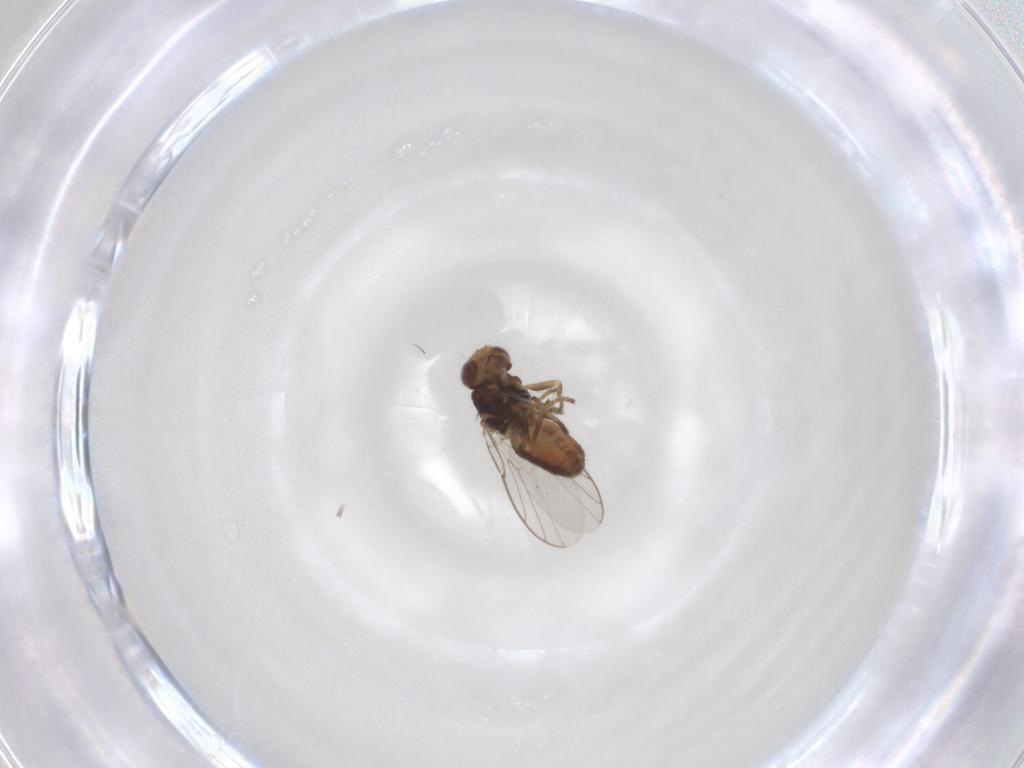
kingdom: Animalia
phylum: Arthropoda
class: Insecta
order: Diptera
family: Chloropidae
